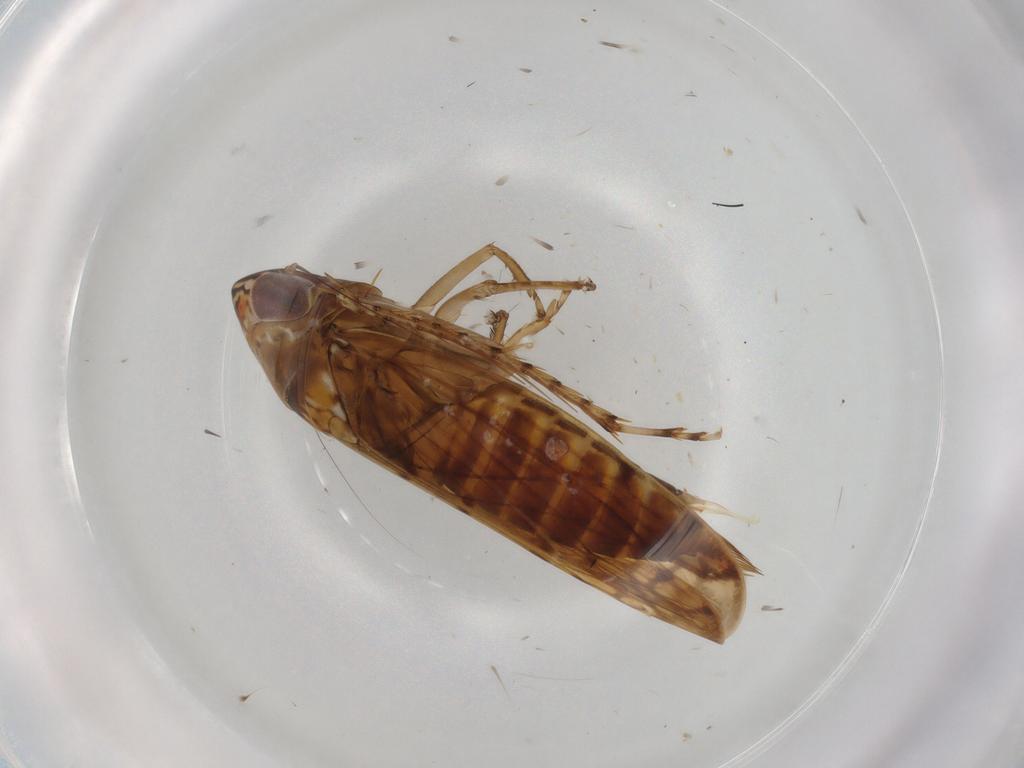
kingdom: Animalia
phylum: Arthropoda
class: Insecta
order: Hemiptera
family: Cicadellidae
